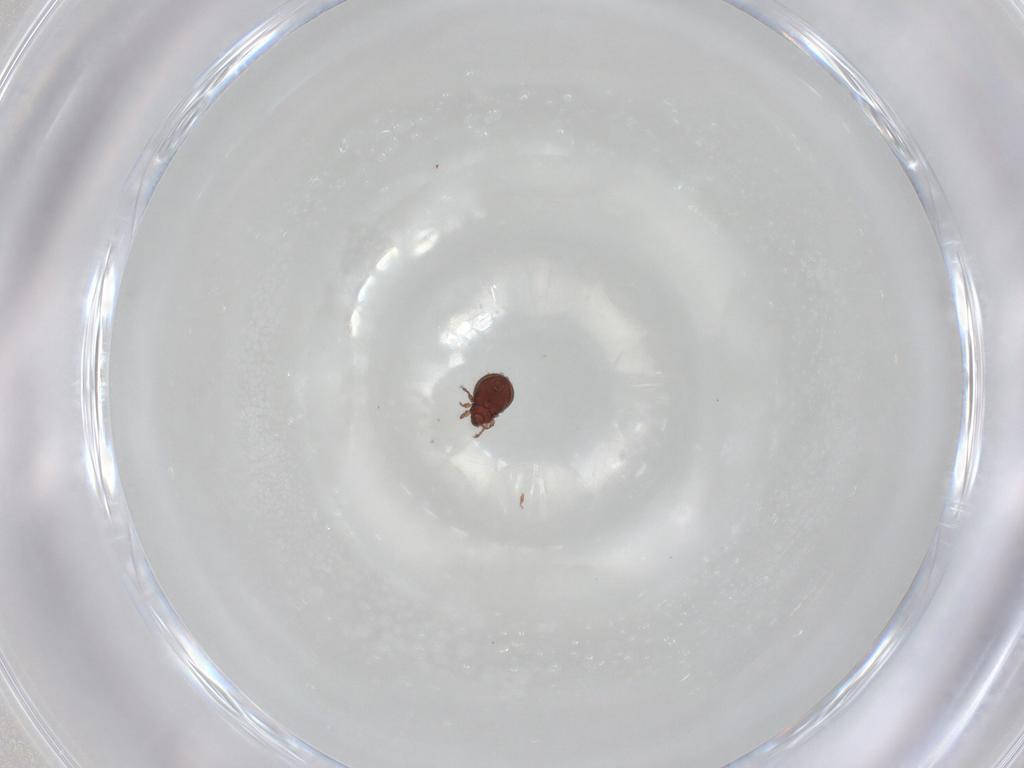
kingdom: Animalia
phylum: Arthropoda
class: Arachnida
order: Sarcoptiformes
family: Scheloribatidae
